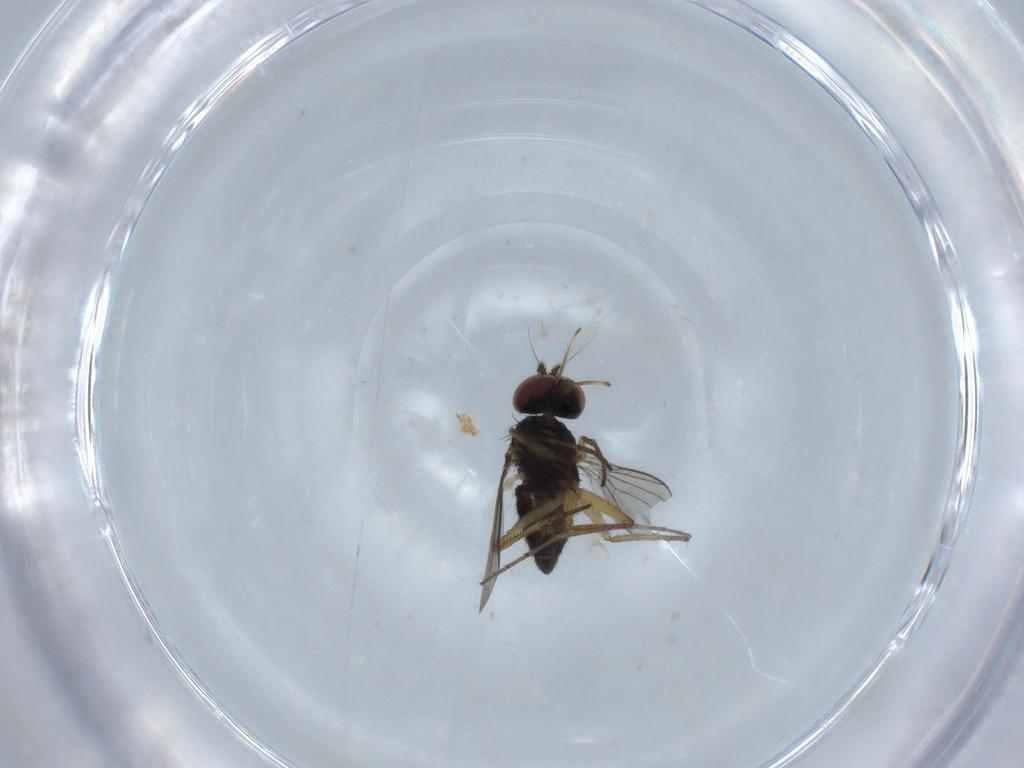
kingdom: Animalia
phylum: Arthropoda
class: Insecta
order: Diptera
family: Dolichopodidae
